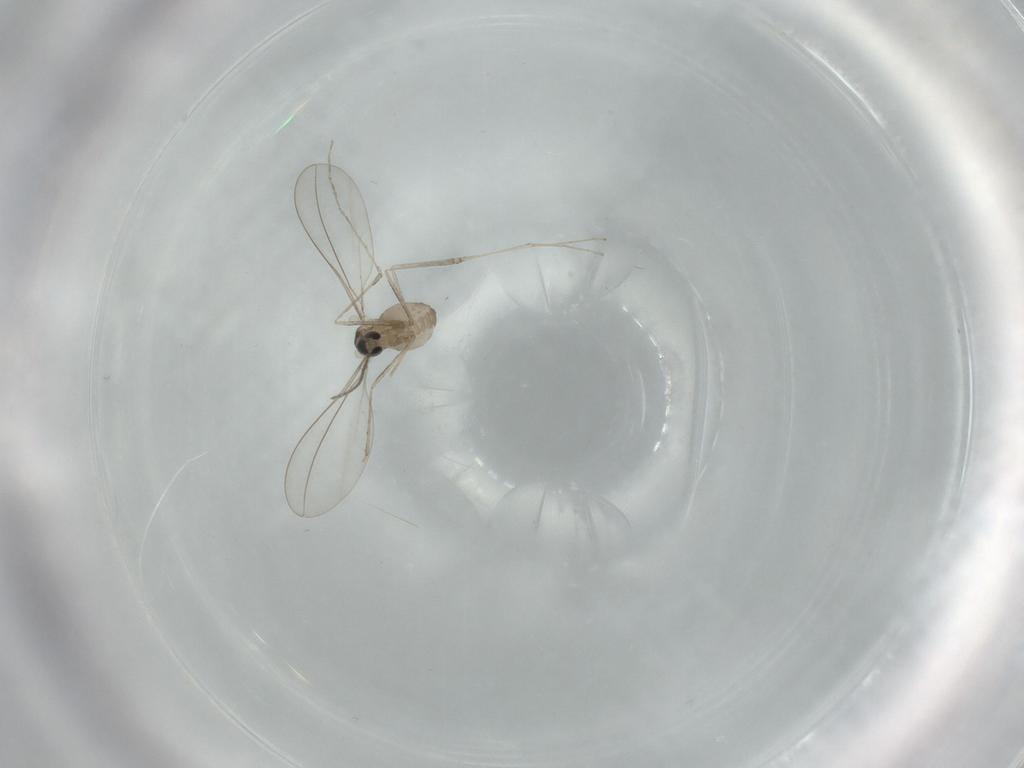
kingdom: Animalia
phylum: Arthropoda
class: Insecta
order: Diptera
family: Cecidomyiidae
